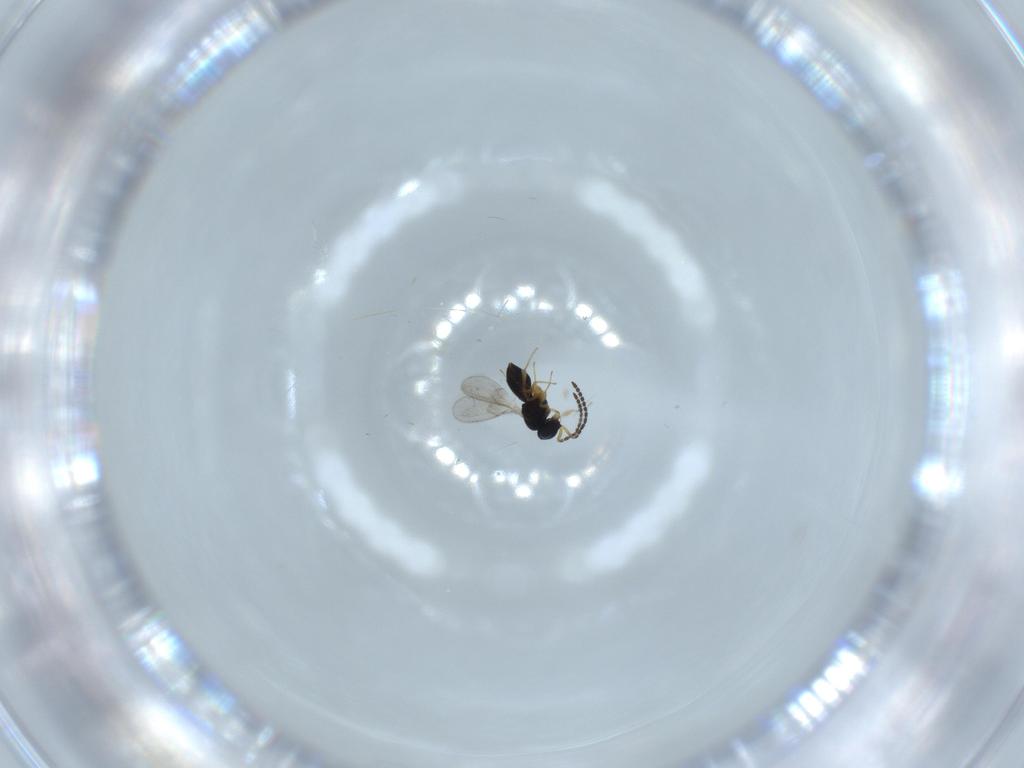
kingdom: Animalia
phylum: Arthropoda
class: Insecta
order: Hymenoptera
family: Scelionidae
